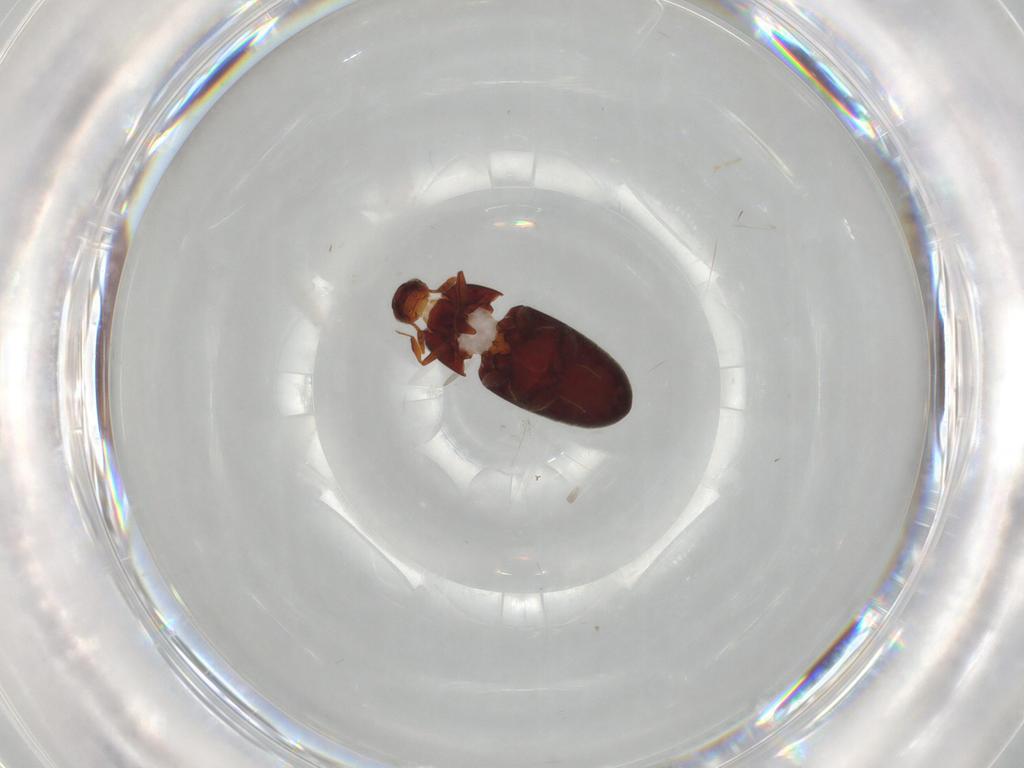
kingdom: Animalia
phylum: Arthropoda
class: Insecta
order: Coleoptera
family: Throscidae
